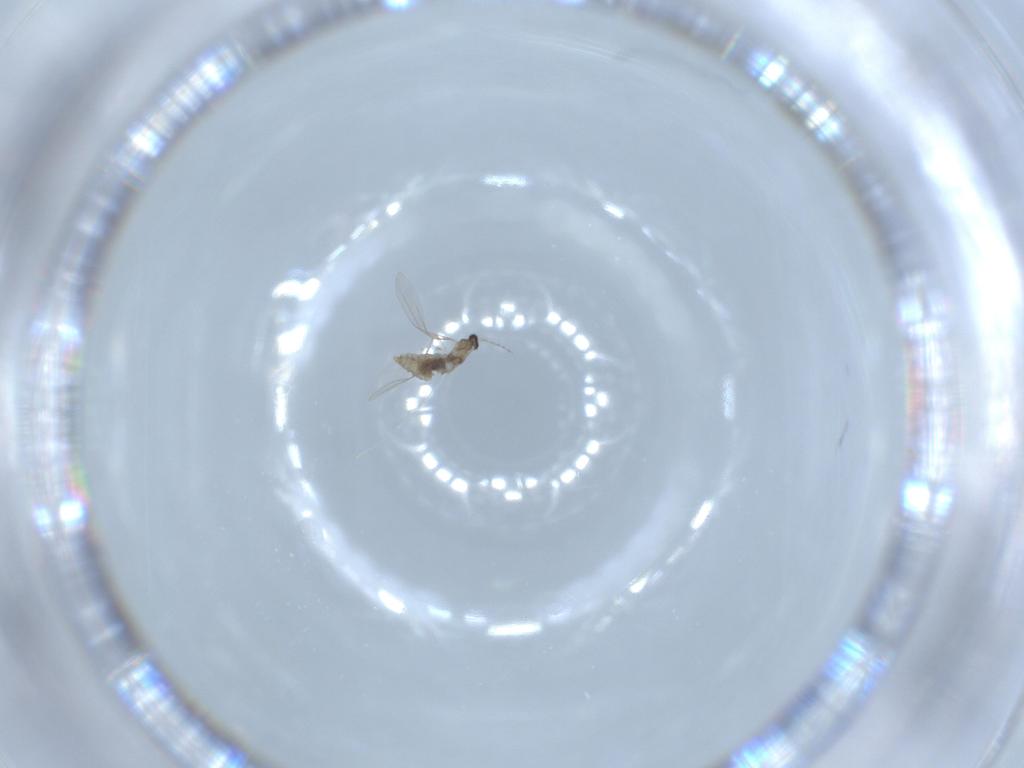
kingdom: Animalia
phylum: Arthropoda
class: Insecta
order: Diptera
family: Cecidomyiidae
